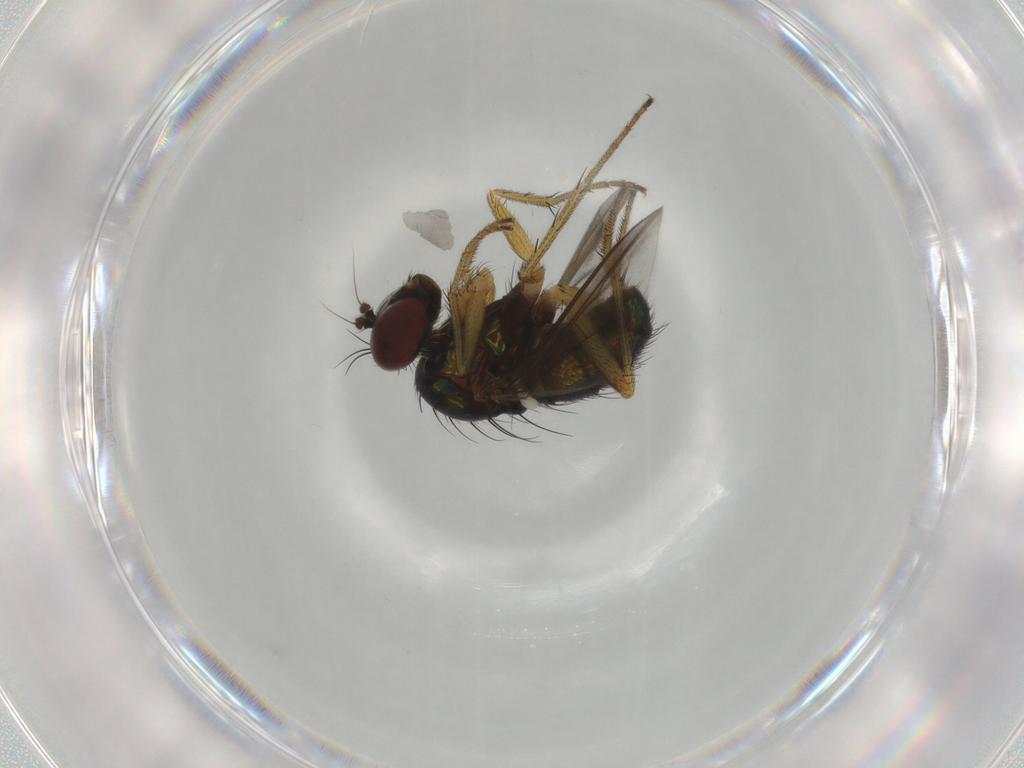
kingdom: Animalia
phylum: Arthropoda
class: Insecta
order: Diptera
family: Dolichopodidae
